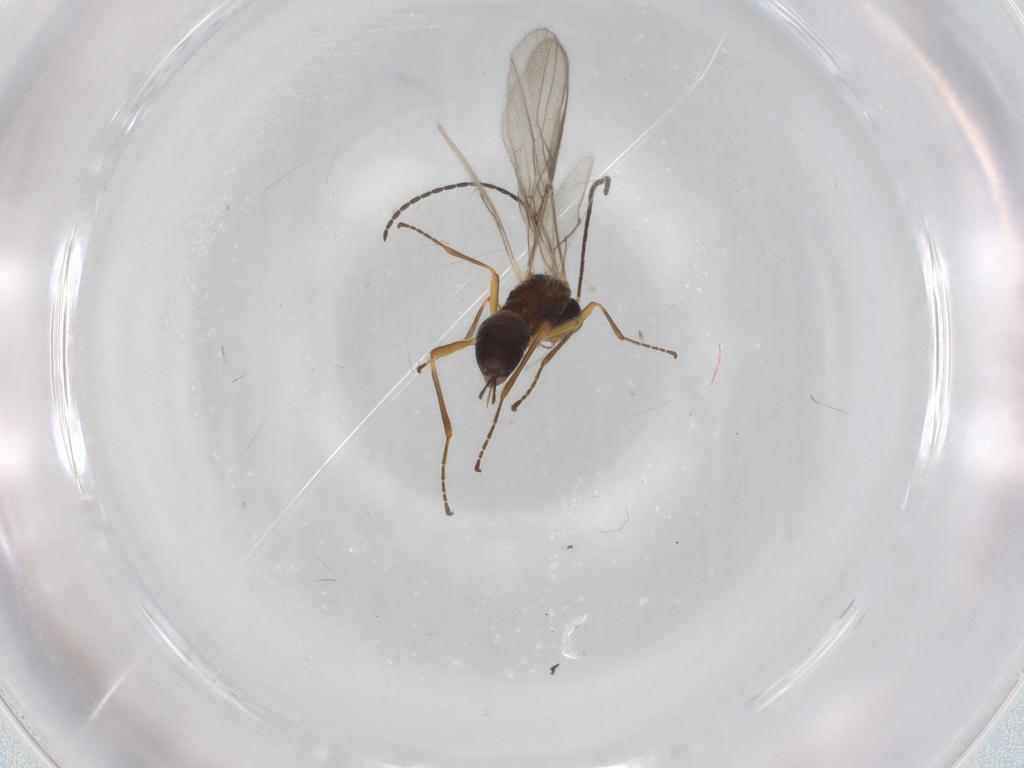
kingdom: Animalia
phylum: Arthropoda
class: Insecta
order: Hymenoptera
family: Braconidae
